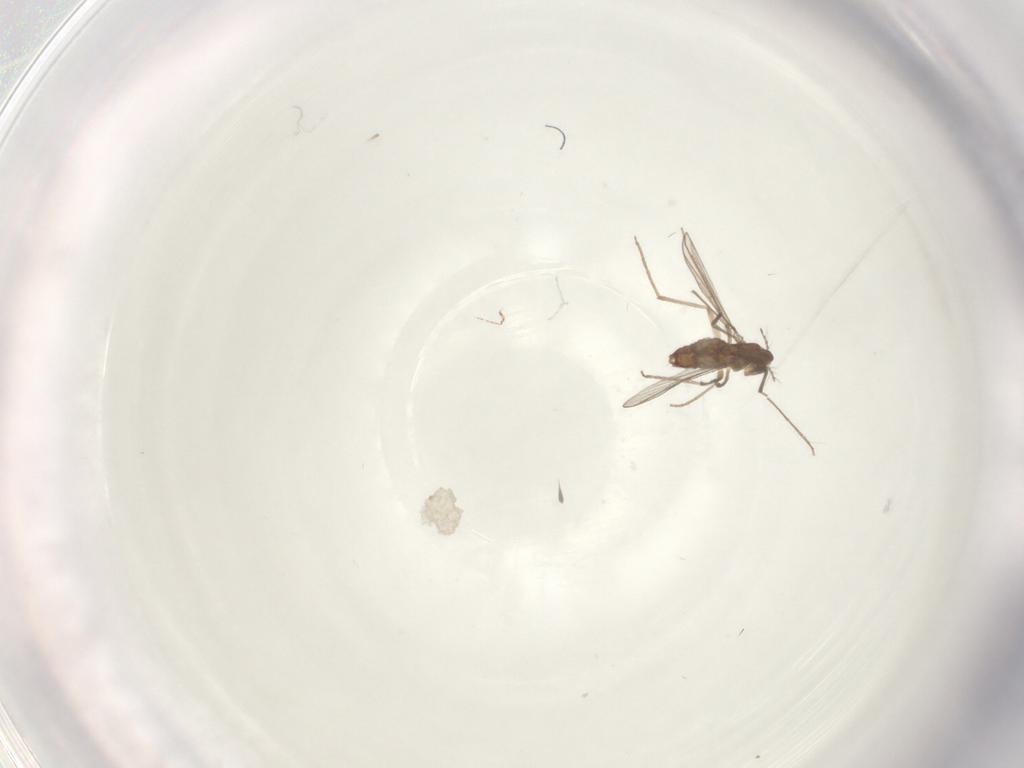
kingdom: Animalia
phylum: Arthropoda
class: Insecta
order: Diptera
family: Chironomidae
